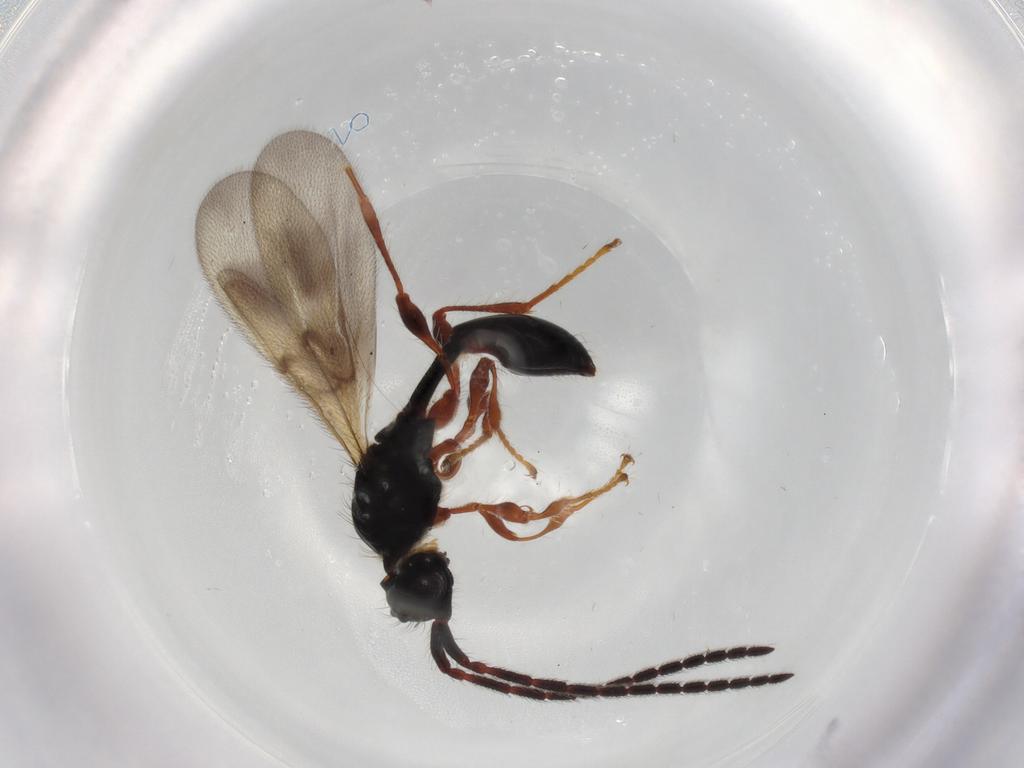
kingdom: Animalia
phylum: Arthropoda
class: Insecta
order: Hymenoptera
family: Diapriidae
